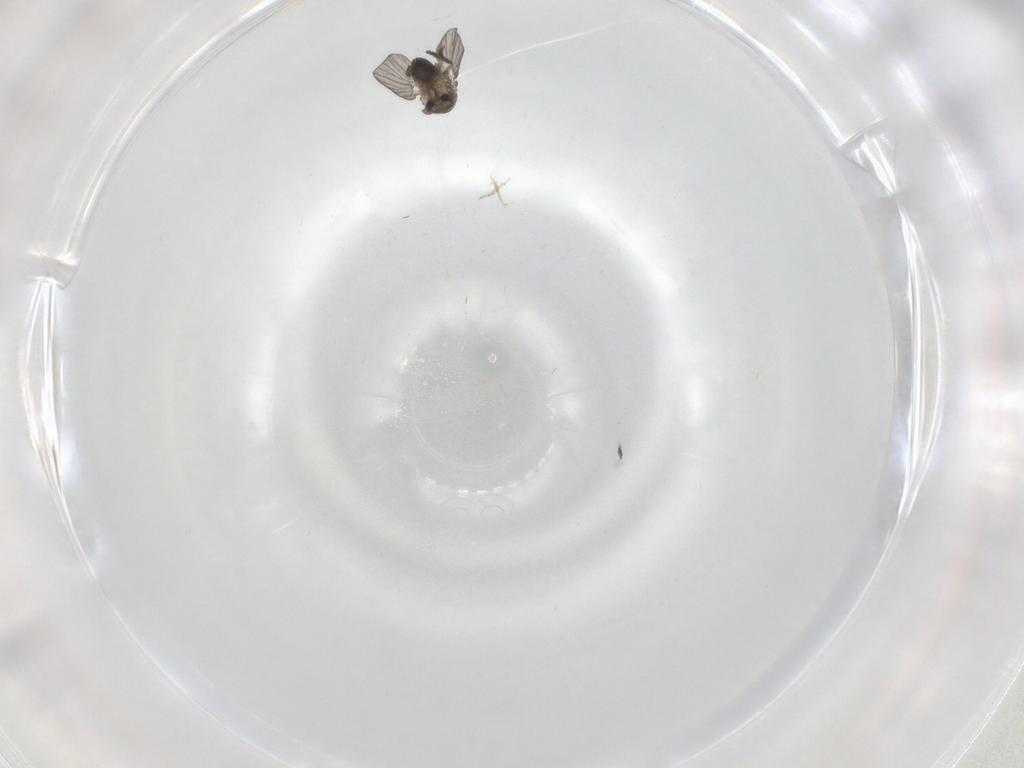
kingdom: Animalia
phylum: Arthropoda
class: Insecta
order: Diptera
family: Psychodidae
